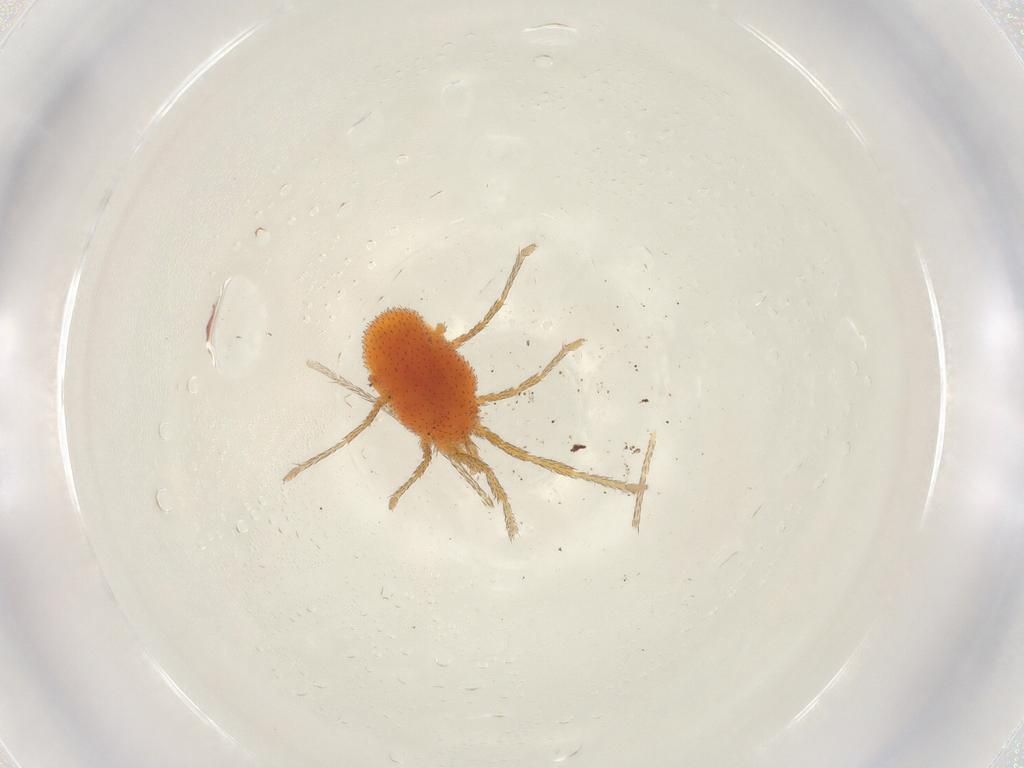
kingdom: Animalia
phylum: Arthropoda
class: Arachnida
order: Trombidiformes
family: Erythraeidae
